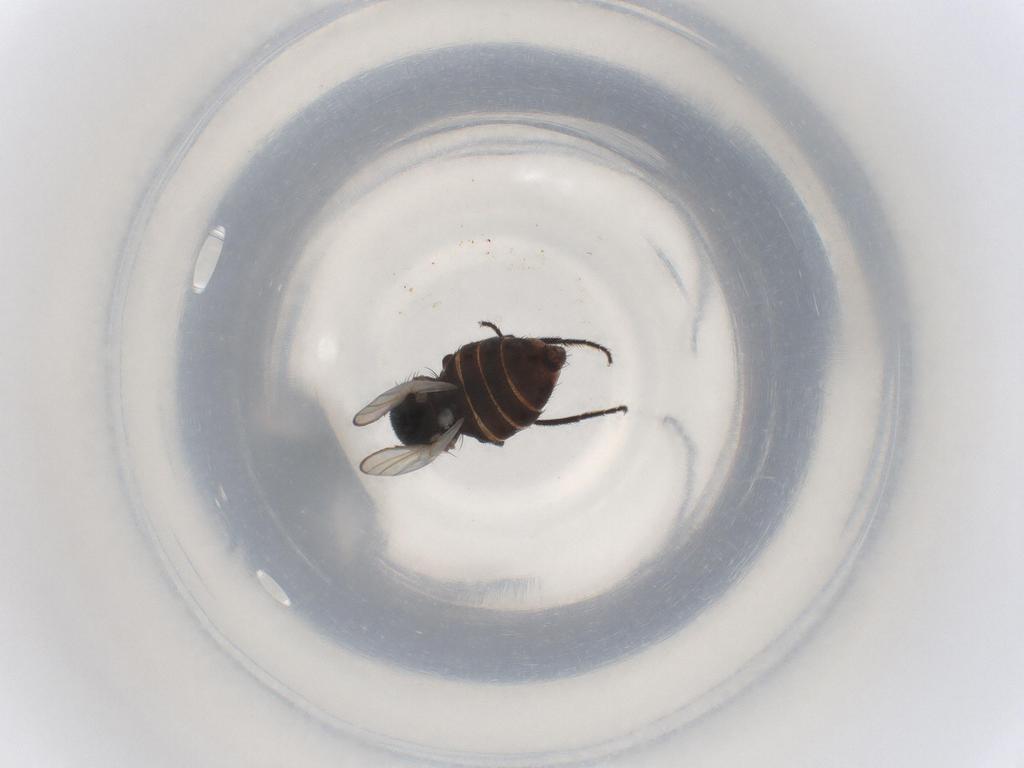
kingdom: Animalia
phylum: Arthropoda
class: Insecta
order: Diptera
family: Milichiidae
